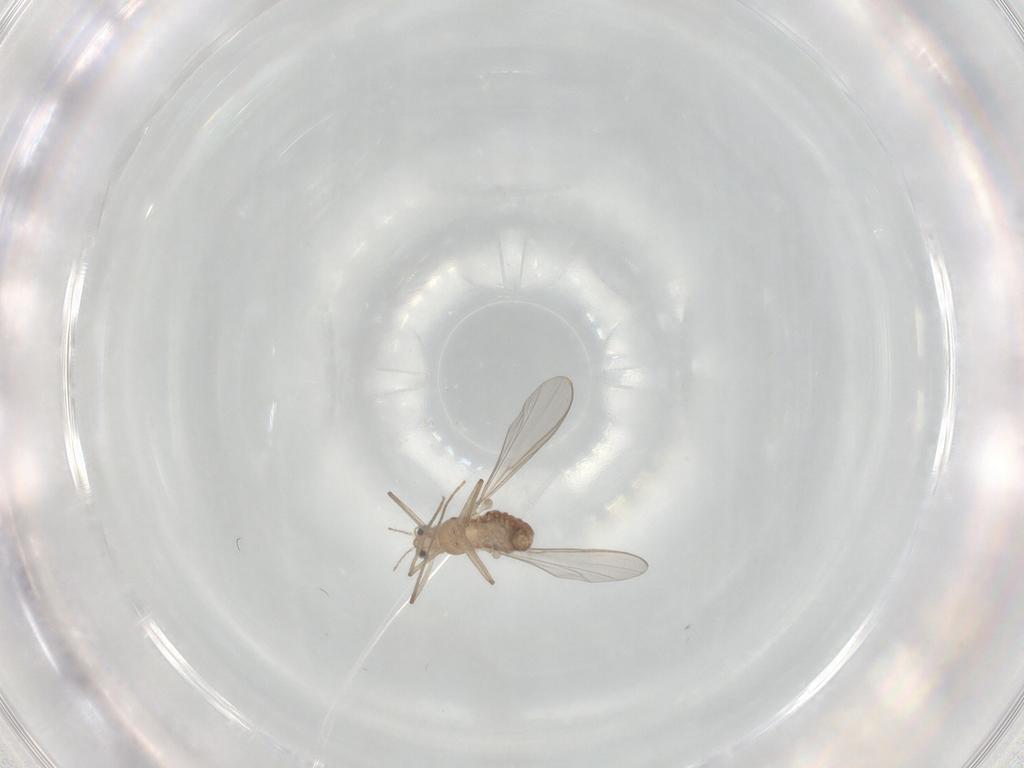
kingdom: Animalia
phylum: Arthropoda
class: Insecta
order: Diptera
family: Chironomidae
